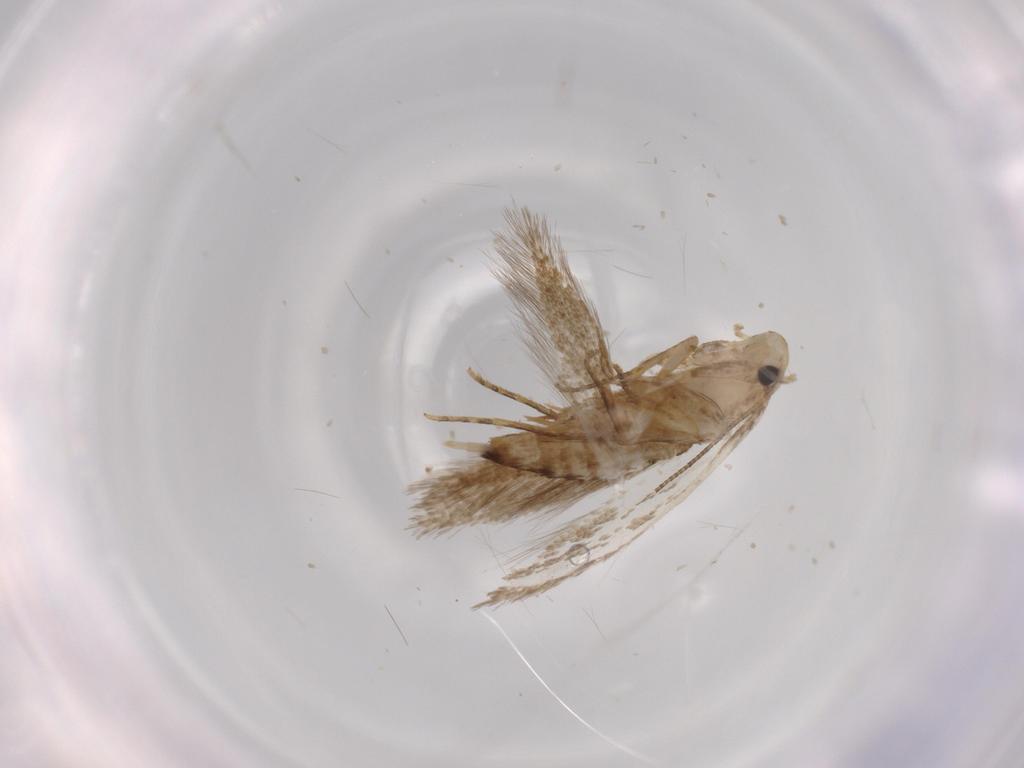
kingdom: Animalia
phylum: Arthropoda
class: Insecta
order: Lepidoptera
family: Tineidae
